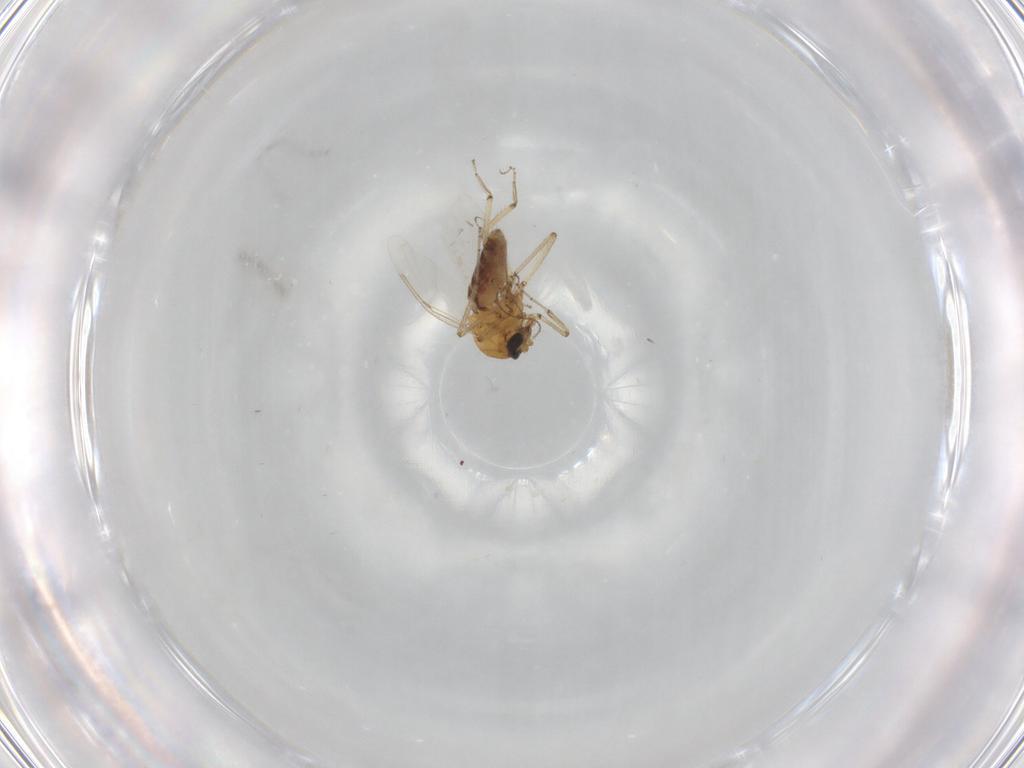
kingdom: Animalia
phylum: Arthropoda
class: Insecta
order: Diptera
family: Ceratopogonidae
